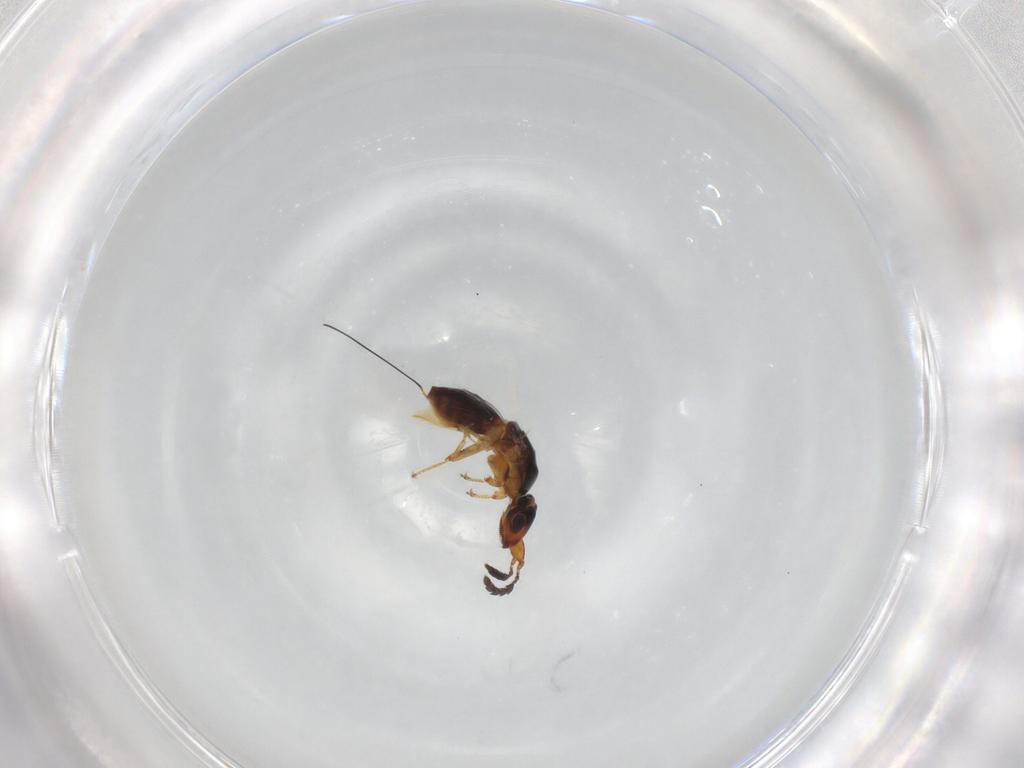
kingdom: Animalia
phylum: Arthropoda
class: Insecta
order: Hymenoptera
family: Agaonidae
